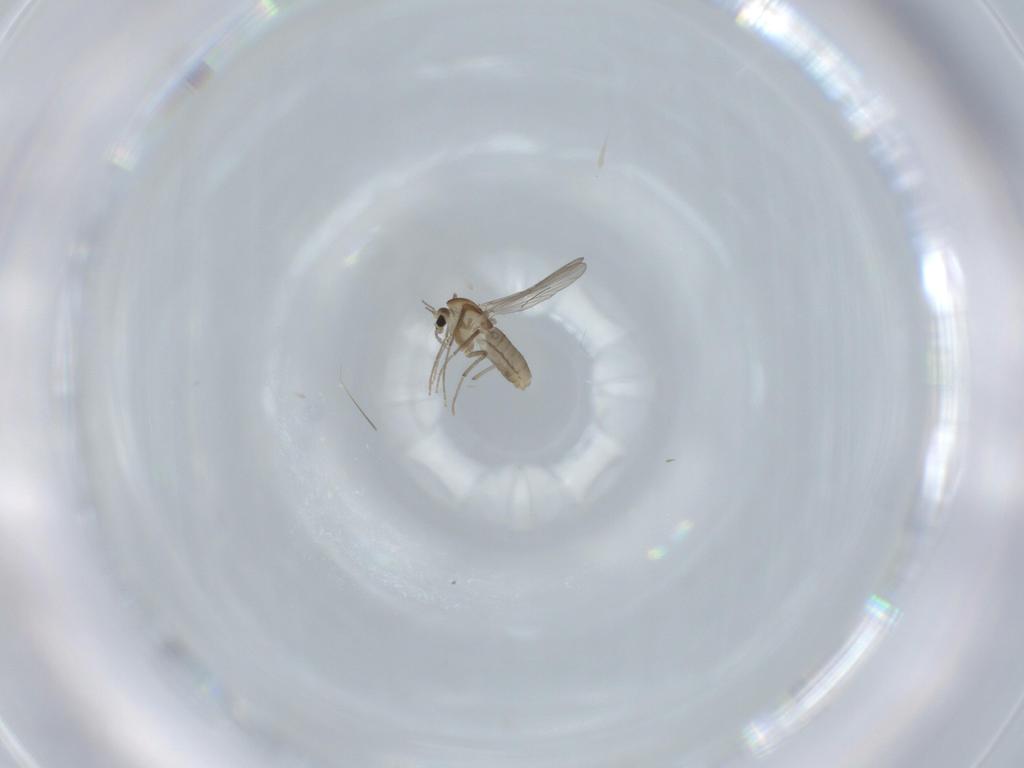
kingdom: Animalia
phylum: Arthropoda
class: Insecta
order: Diptera
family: Chironomidae
